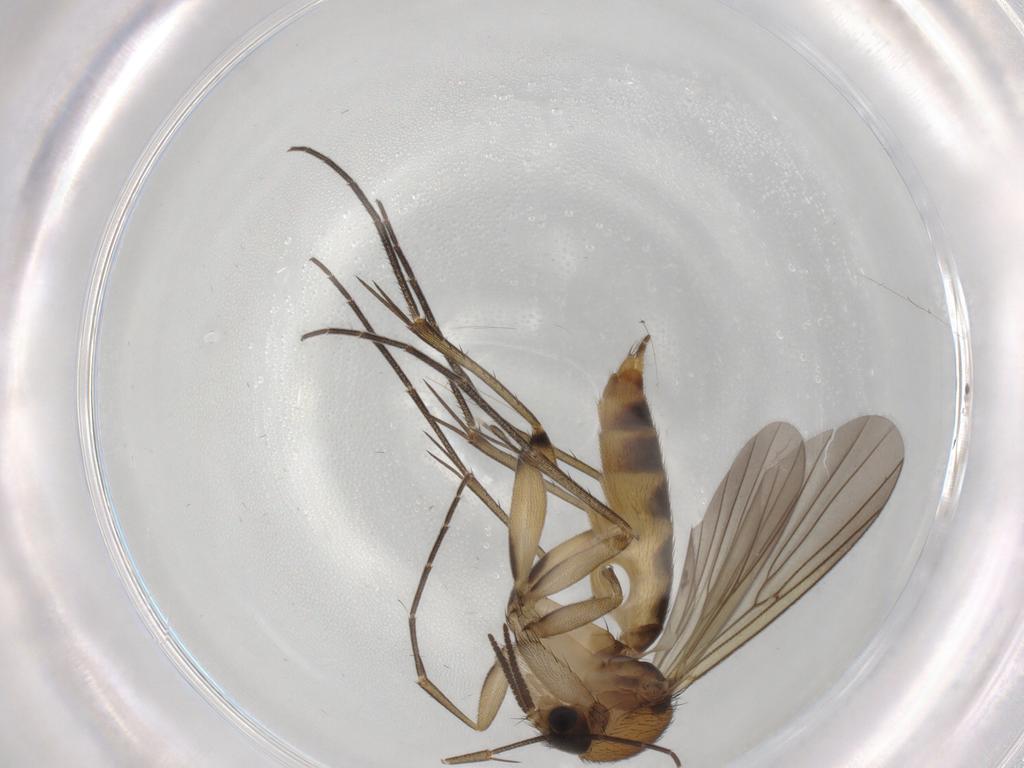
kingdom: Animalia
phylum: Arthropoda
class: Insecta
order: Diptera
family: Mycetophilidae
